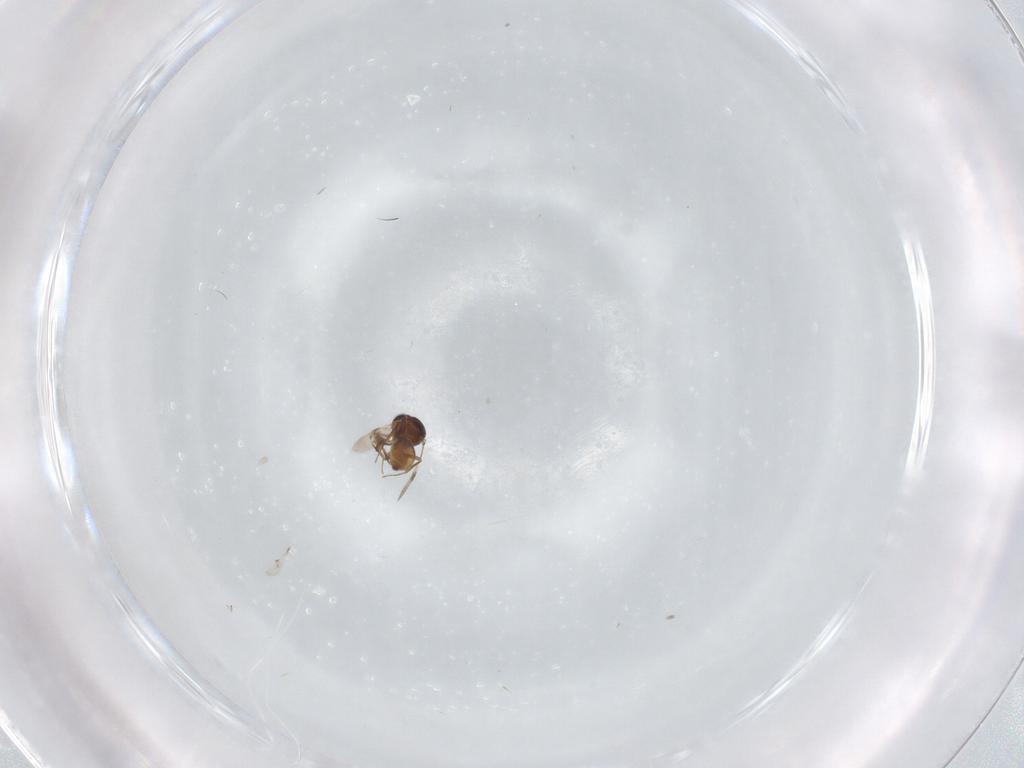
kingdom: Animalia
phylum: Arthropoda
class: Insecta
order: Hymenoptera
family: Scelionidae
